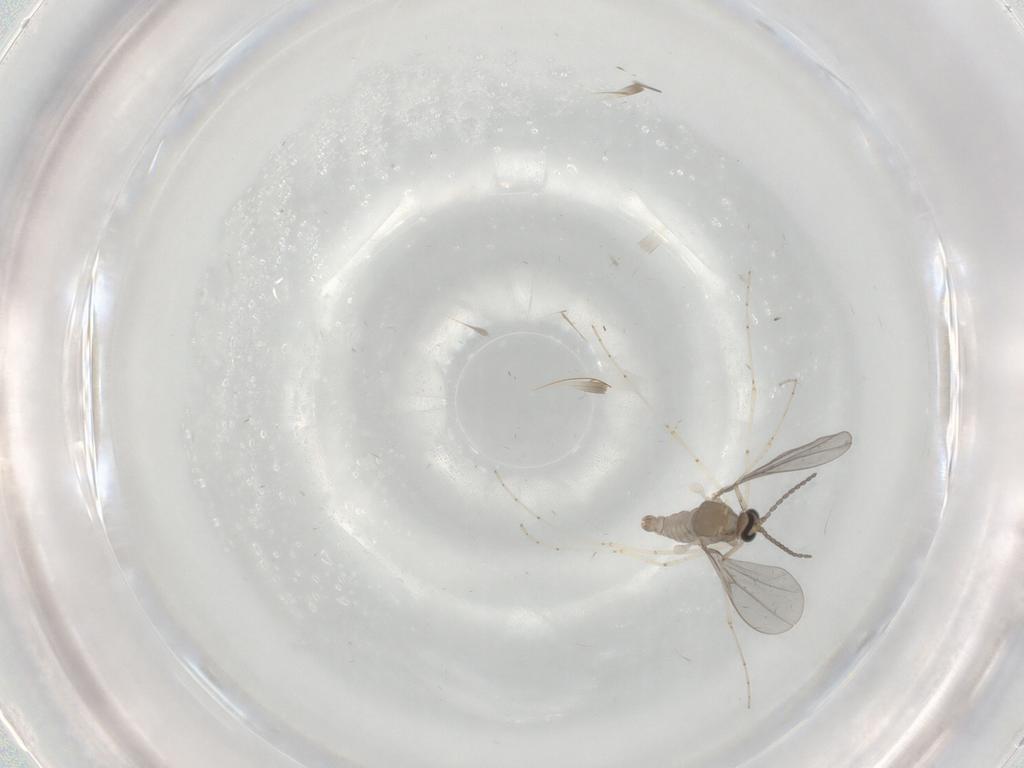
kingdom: Animalia
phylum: Arthropoda
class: Insecta
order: Diptera
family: Cecidomyiidae
